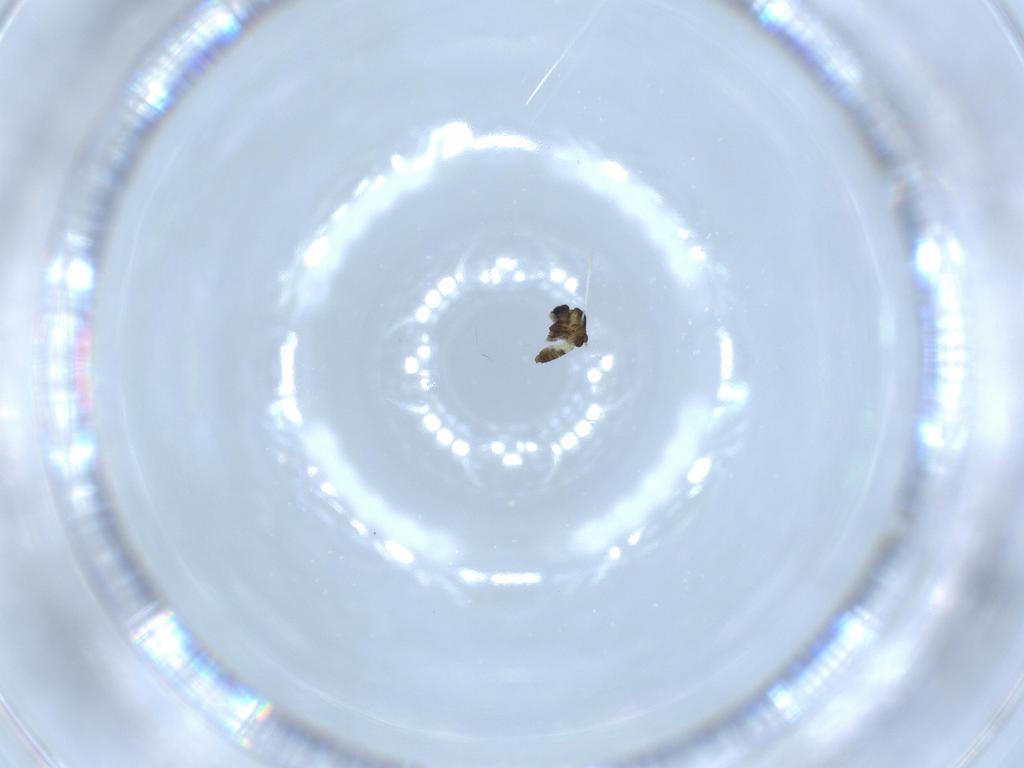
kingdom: Animalia
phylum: Arthropoda
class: Insecta
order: Diptera
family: Chironomidae
